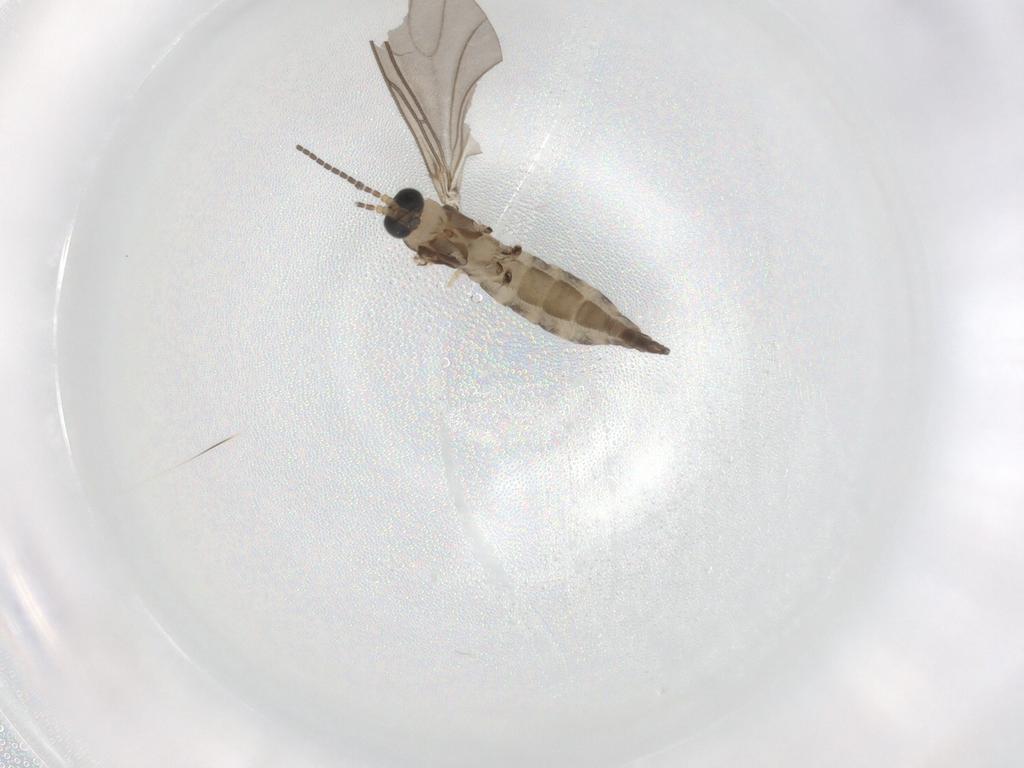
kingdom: Animalia
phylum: Arthropoda
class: Insecta
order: Diptera
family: Sciaridae
